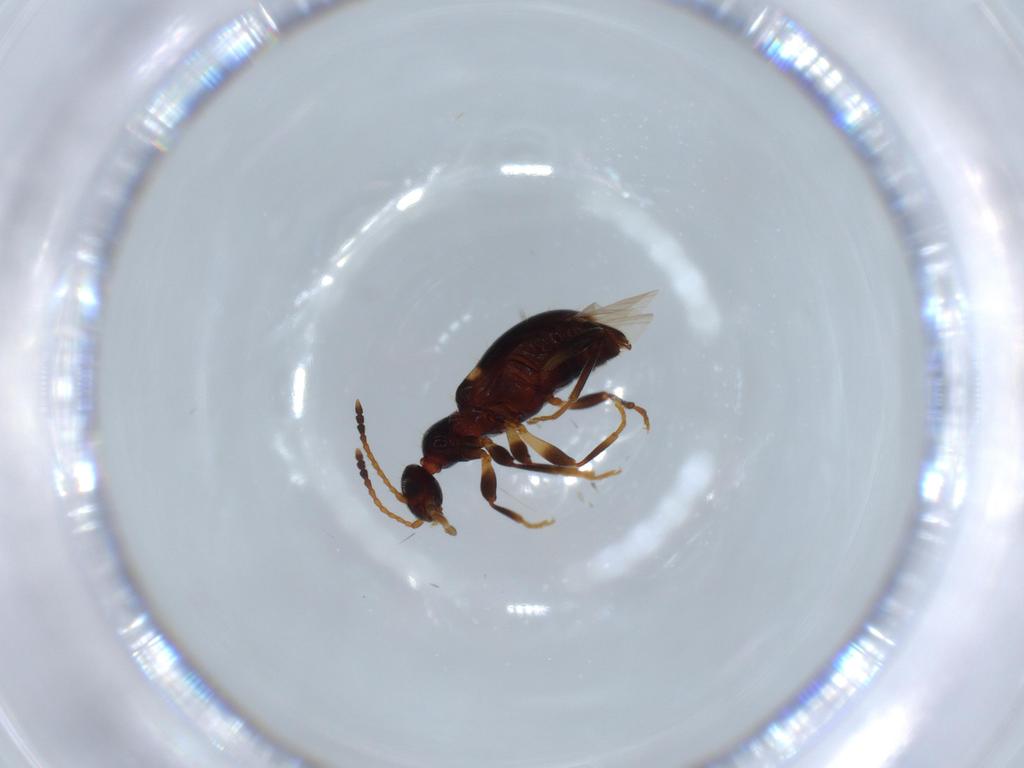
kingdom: Animalia
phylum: Arthropoda
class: Insecta
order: Coleoptera
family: Anthicidae
